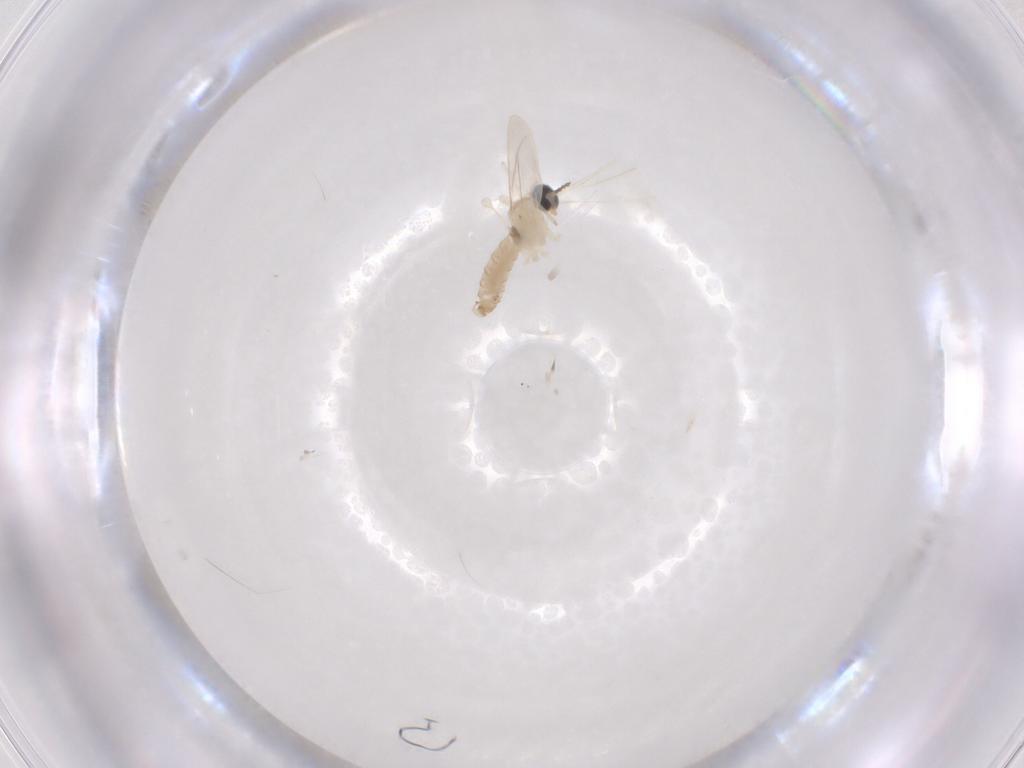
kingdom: Animalia
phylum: Arthropoda
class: Insecta
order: Diptera
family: Cecidomyiidae
